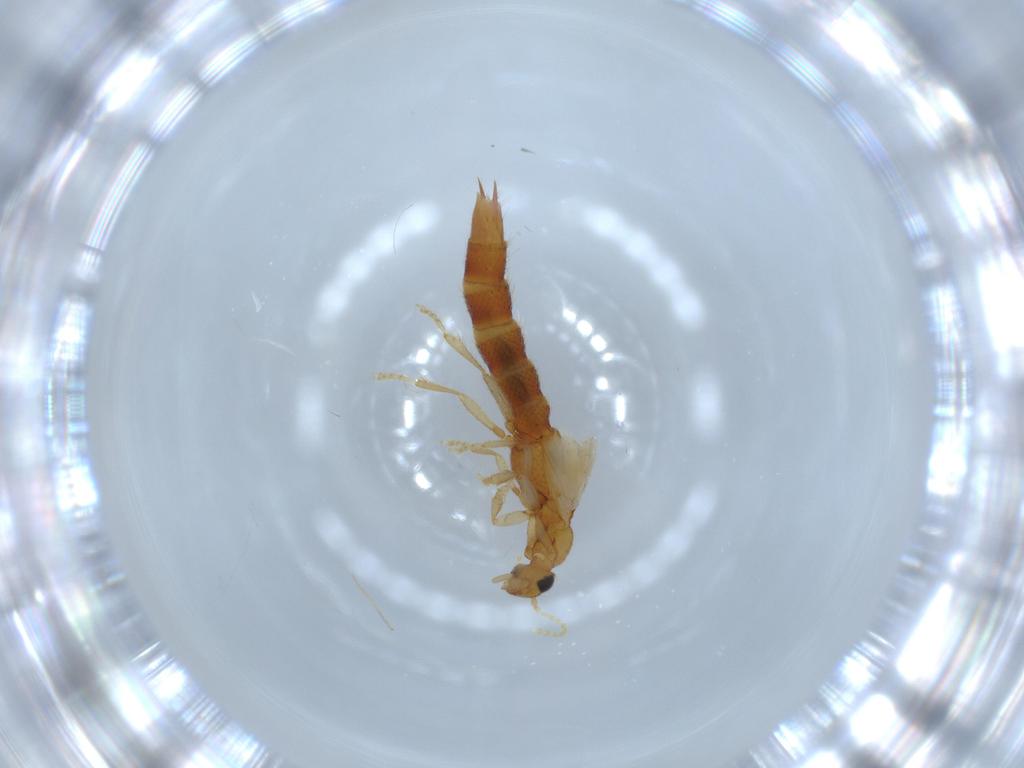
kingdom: Animalia
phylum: Arthropoda
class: Insecta
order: Coleoptera
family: Staphylinidae
